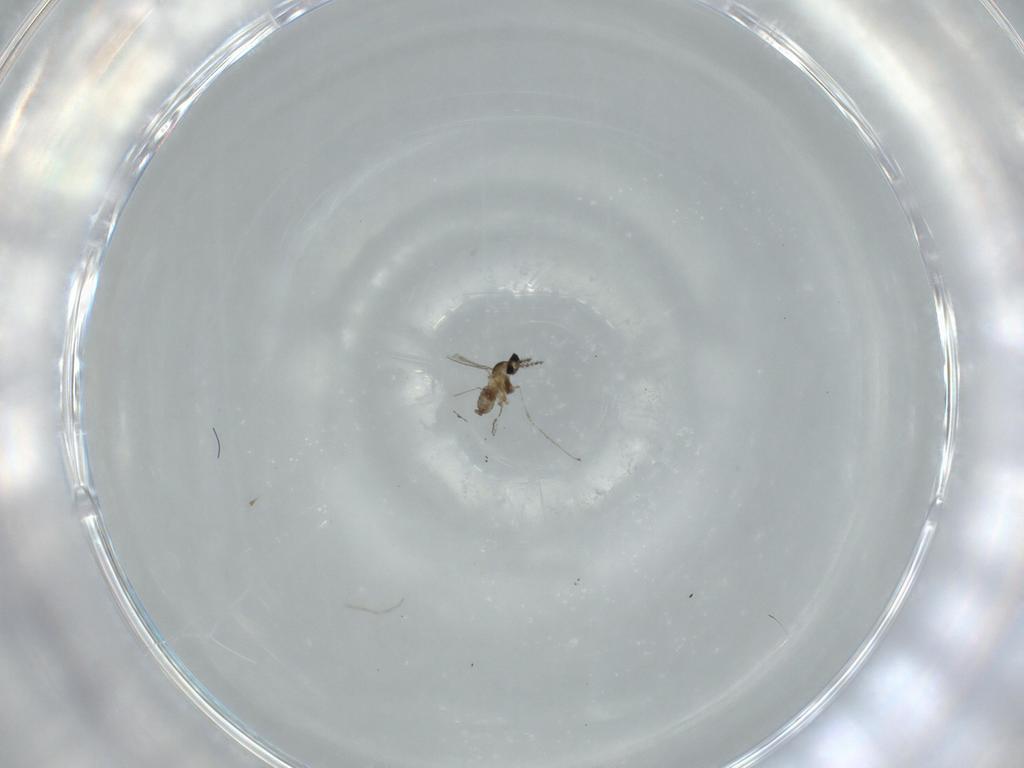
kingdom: Animalia
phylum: Arthropoda
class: Insecta
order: Diptera
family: Cecidomyiidae
